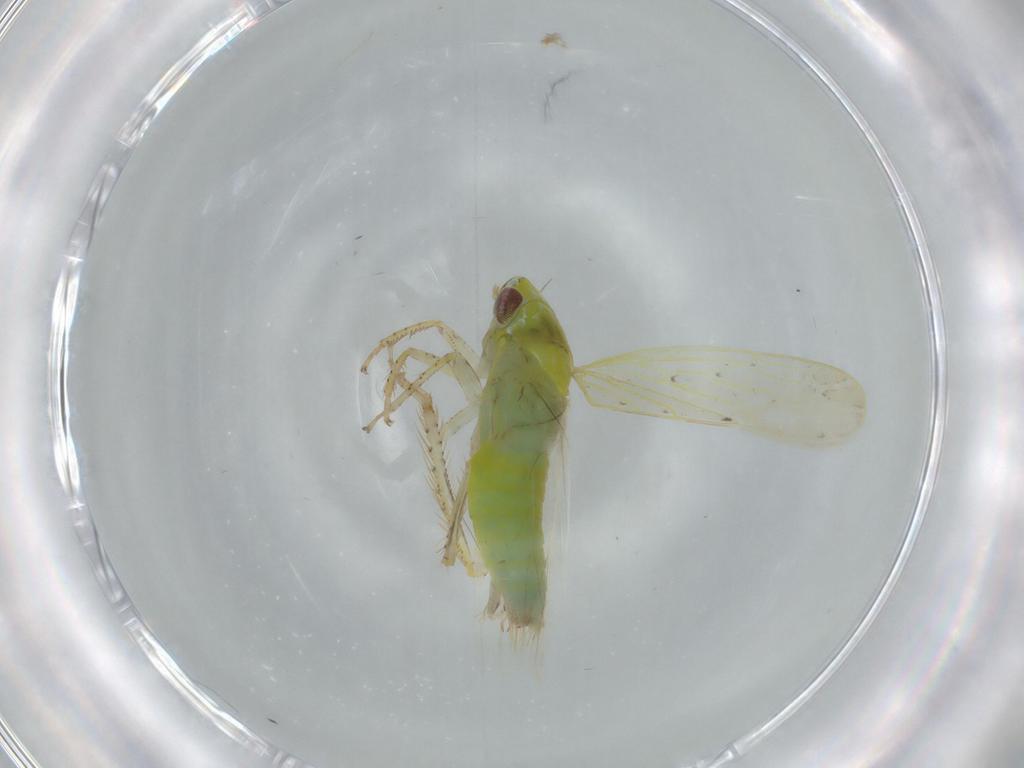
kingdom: Animalia
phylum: Arthropoda
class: Insecta
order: Hemiptera
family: Cicadellidae
